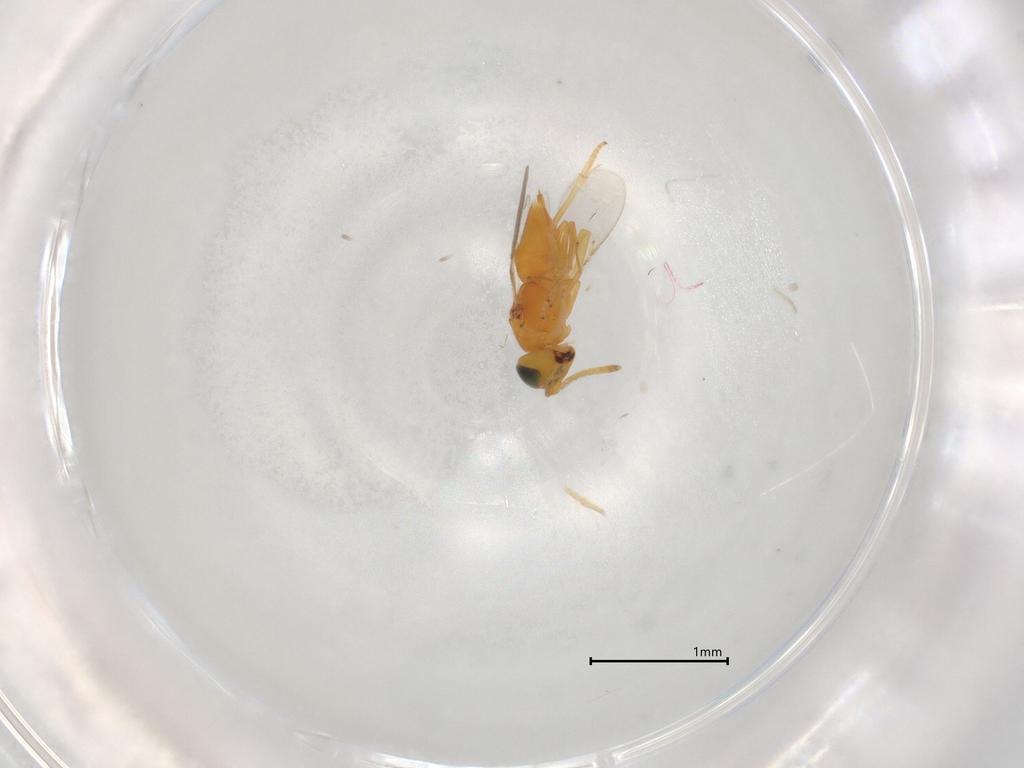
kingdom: Animalia
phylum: Arthropoda
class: Insecta
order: Hymenoptera
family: Encyrtidae
